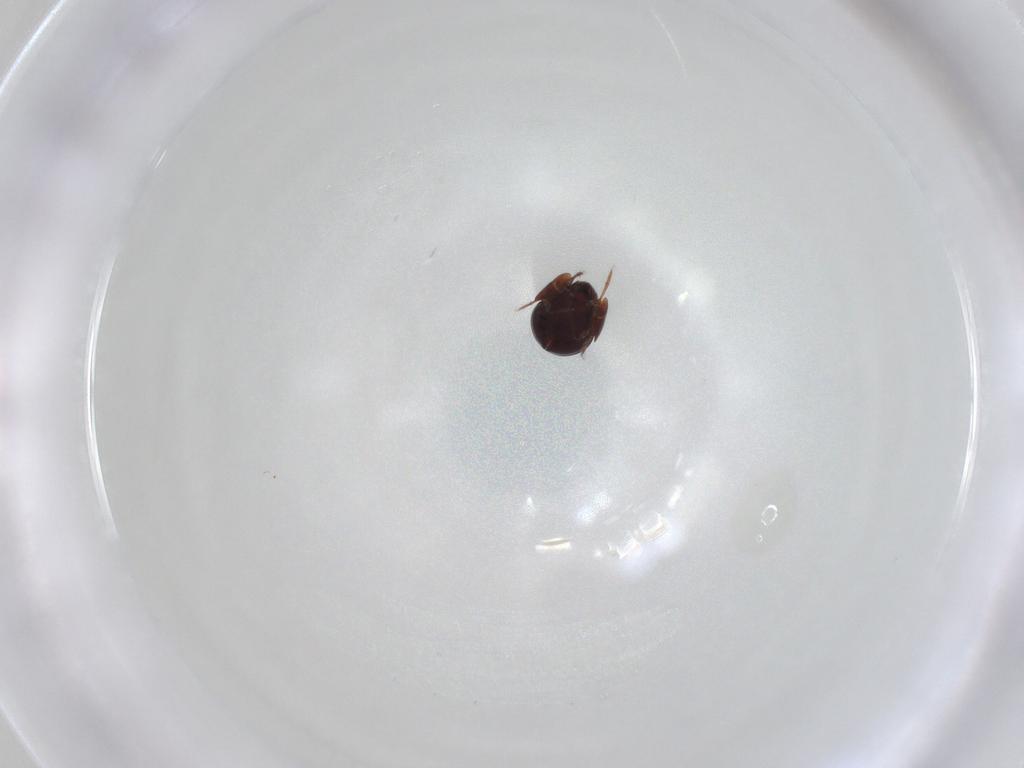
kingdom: Animalia
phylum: Arthropoda
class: Arachnida
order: Sarcoptiformes
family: Galumnidae
